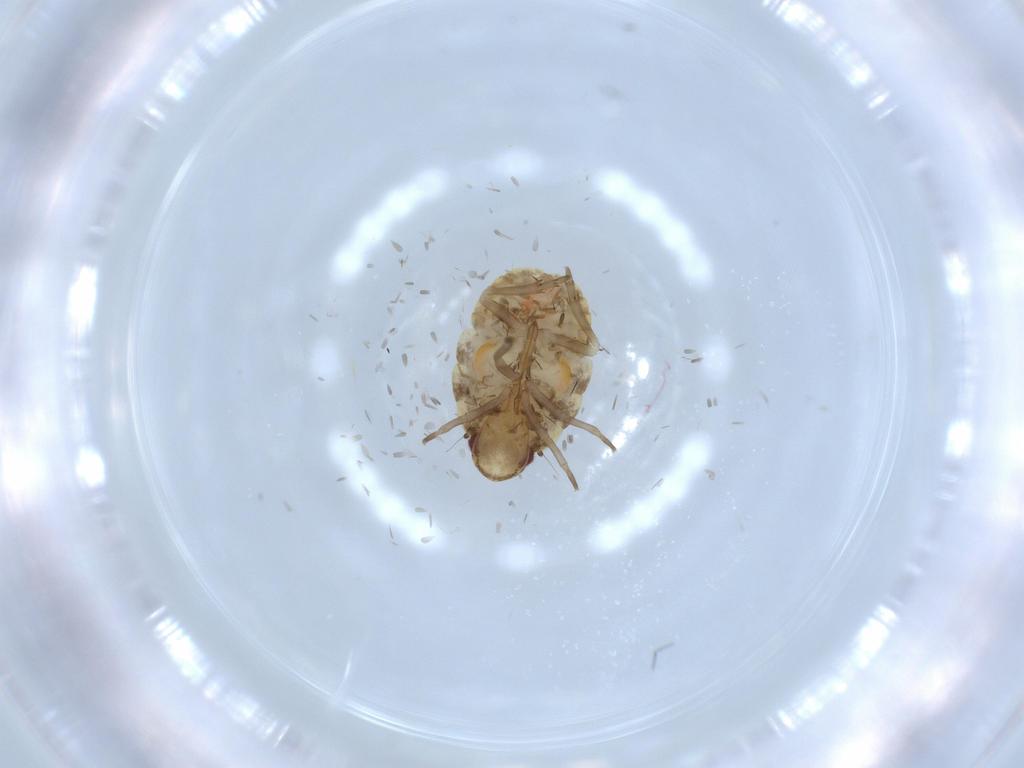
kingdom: Animalia
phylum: Arthropoda
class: Insecta
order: Hemiptera
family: Flatidae
